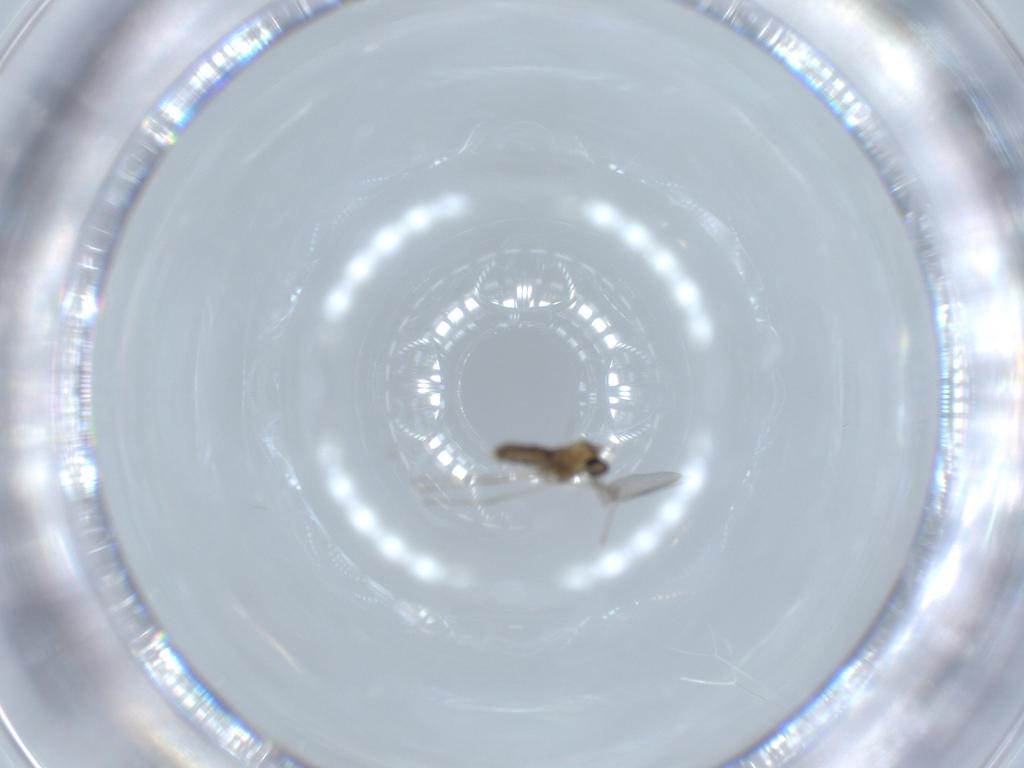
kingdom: Animalia
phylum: Arthropoda
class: Insecta
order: Diptera
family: Cecidomyiidae
